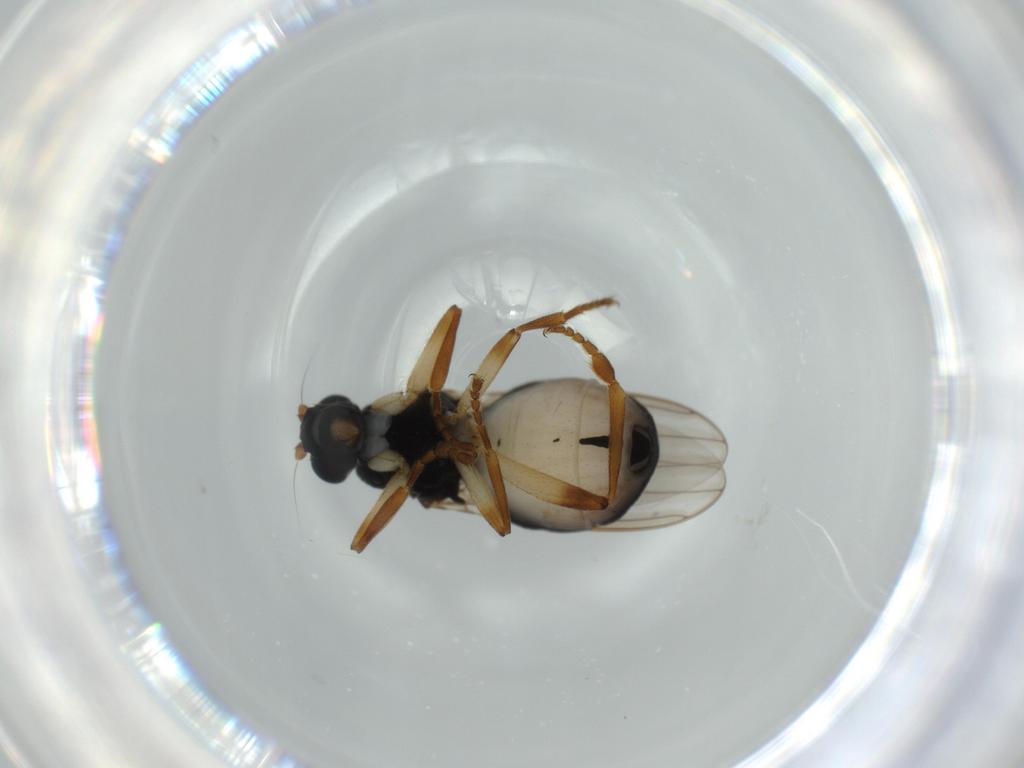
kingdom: Animalia
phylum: Arthropoda
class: Insecta
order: Diptera
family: Sphaeroceridae
